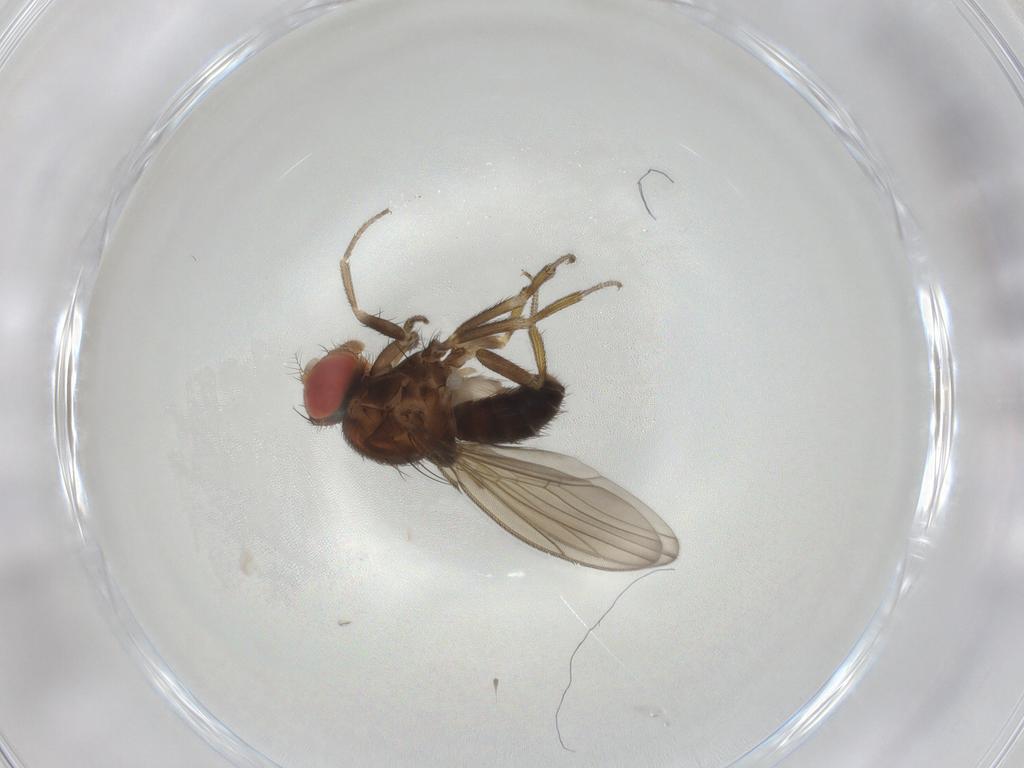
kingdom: Animalia
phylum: Arthropoda
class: Insecta
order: Diptera
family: Drosophilidae
